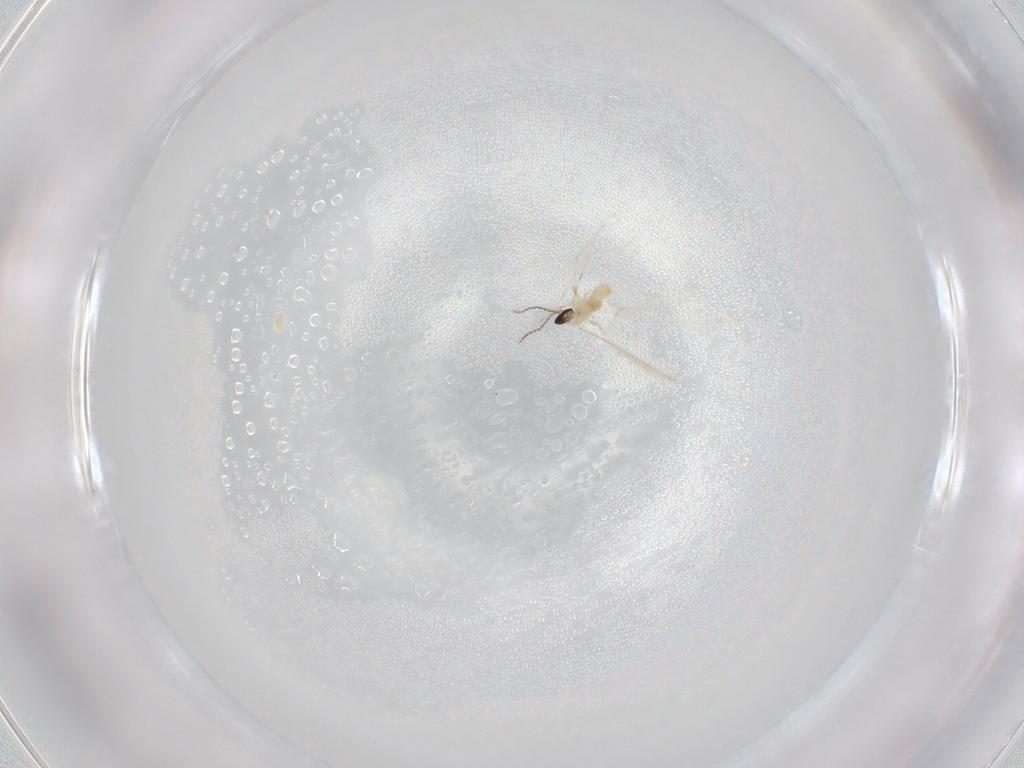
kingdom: Animalia
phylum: Arthropoda
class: Insecta
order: Diptera
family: Cecidomyiidae
